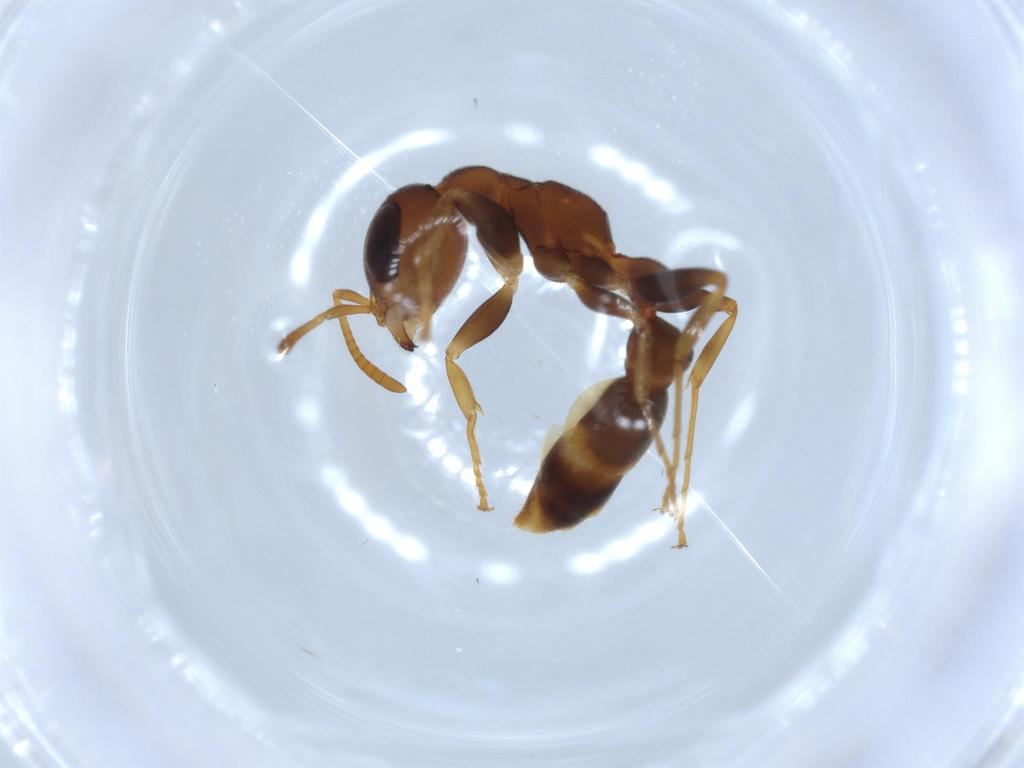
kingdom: Animalia
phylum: Arthropoda
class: Insecta
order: Hymenoptera
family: Formicidae
